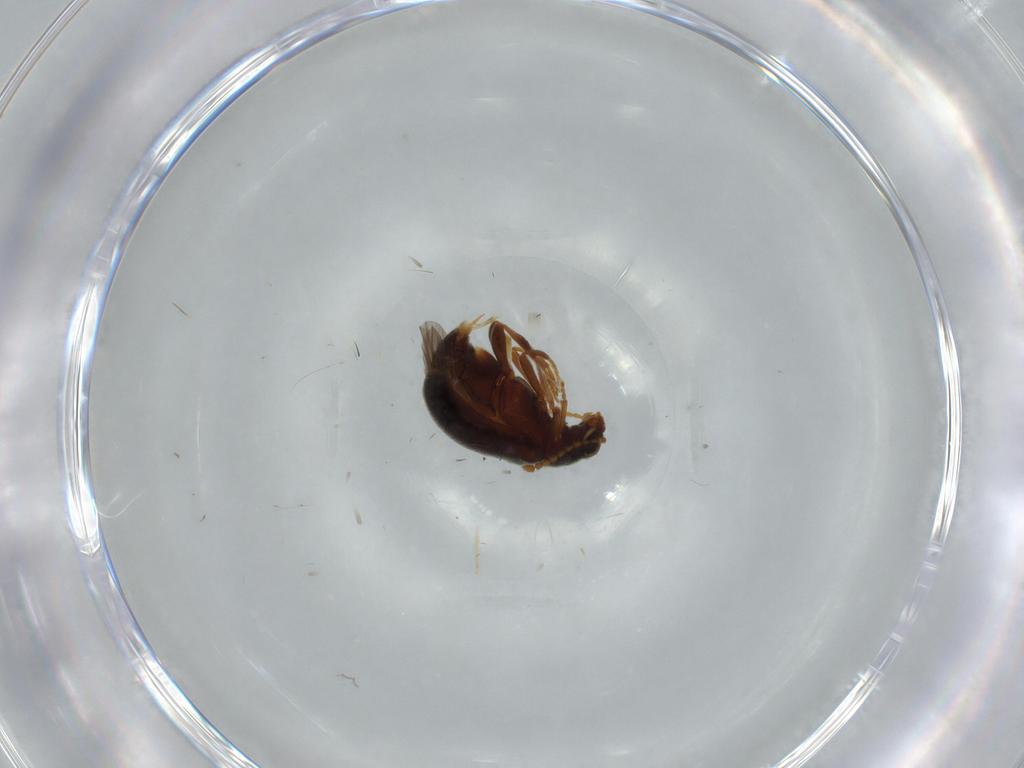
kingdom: Animalia
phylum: Arthropoda
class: Insecta
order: Coleoptera
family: Aderidae
